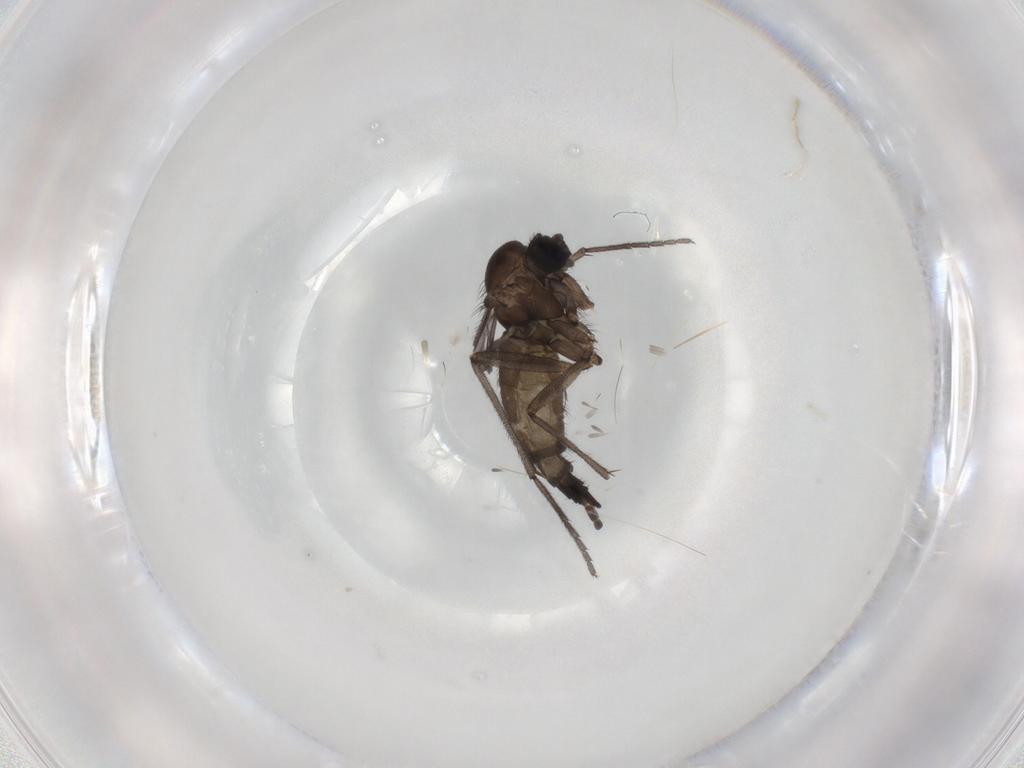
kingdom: Animalia
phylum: Arthropoda
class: Insecta
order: Diptera
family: Sciaridae
